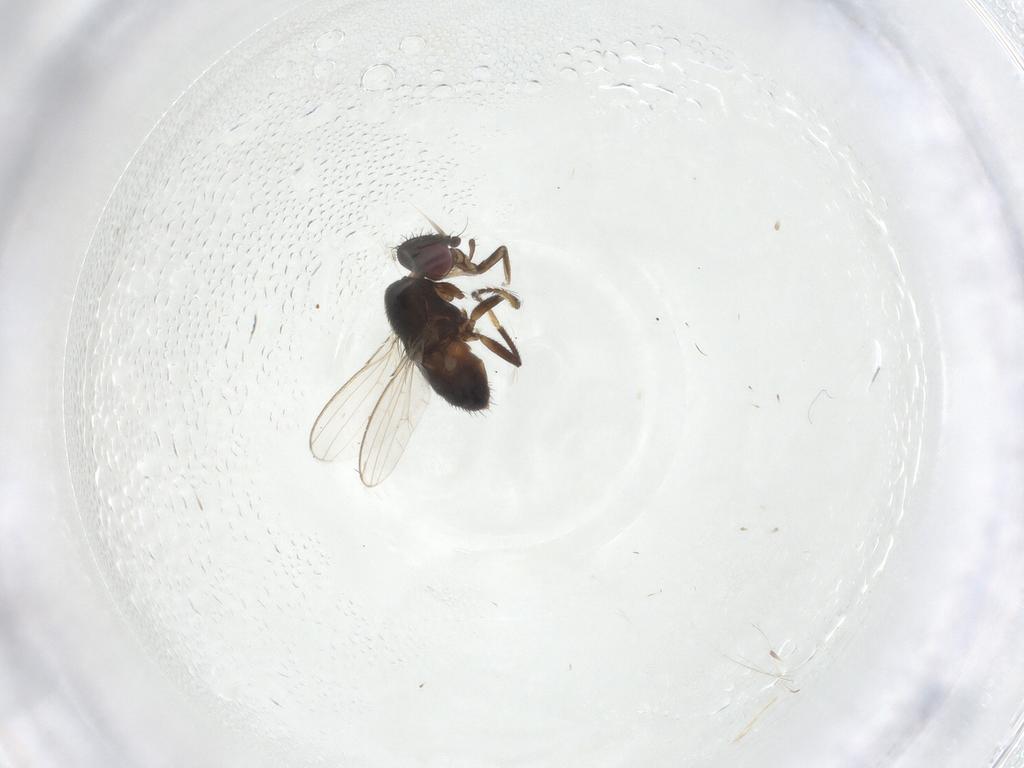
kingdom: Animalia
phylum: Arthropoda
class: Insecta
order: Diptera
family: Milichiidae
